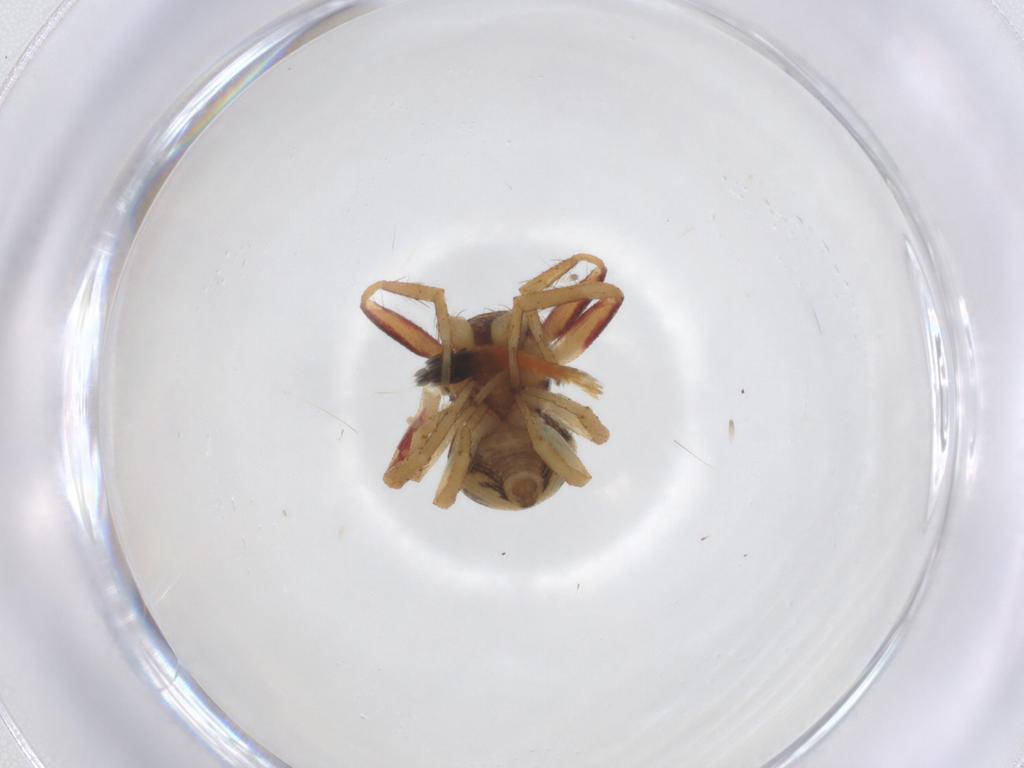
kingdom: Animalia
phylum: Arthropoda
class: Arachnida
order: Araneae
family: Thomisidae
